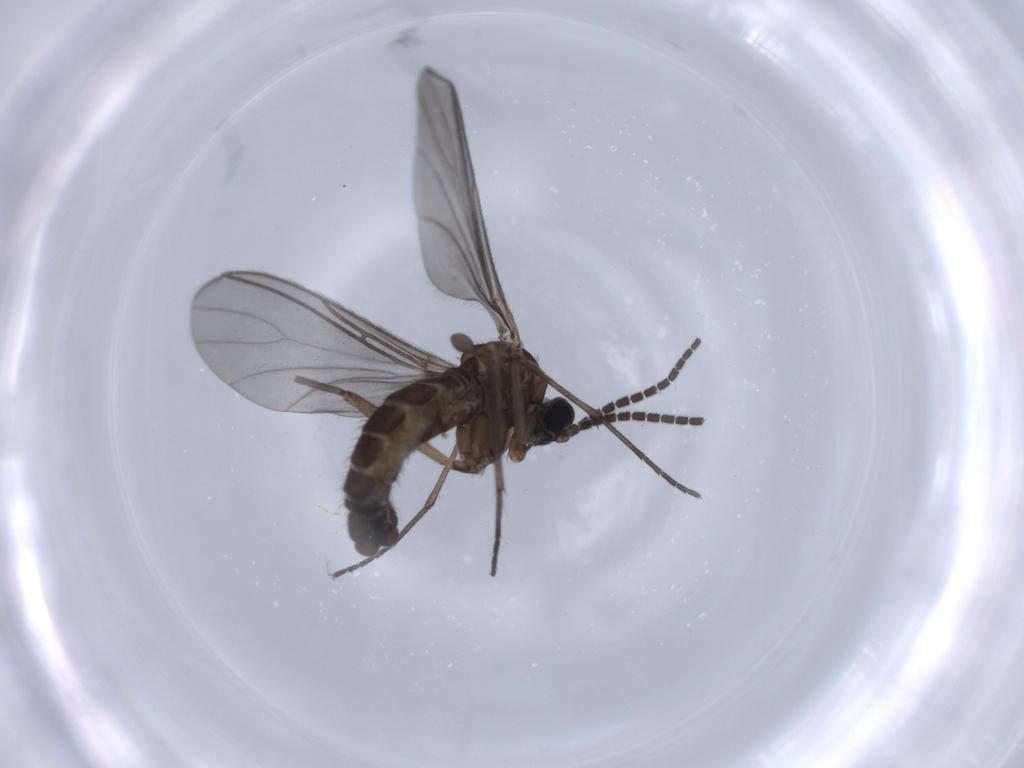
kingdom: Animalia
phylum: Arthropoda
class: Insecta
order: Diptera
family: Sciaridae
